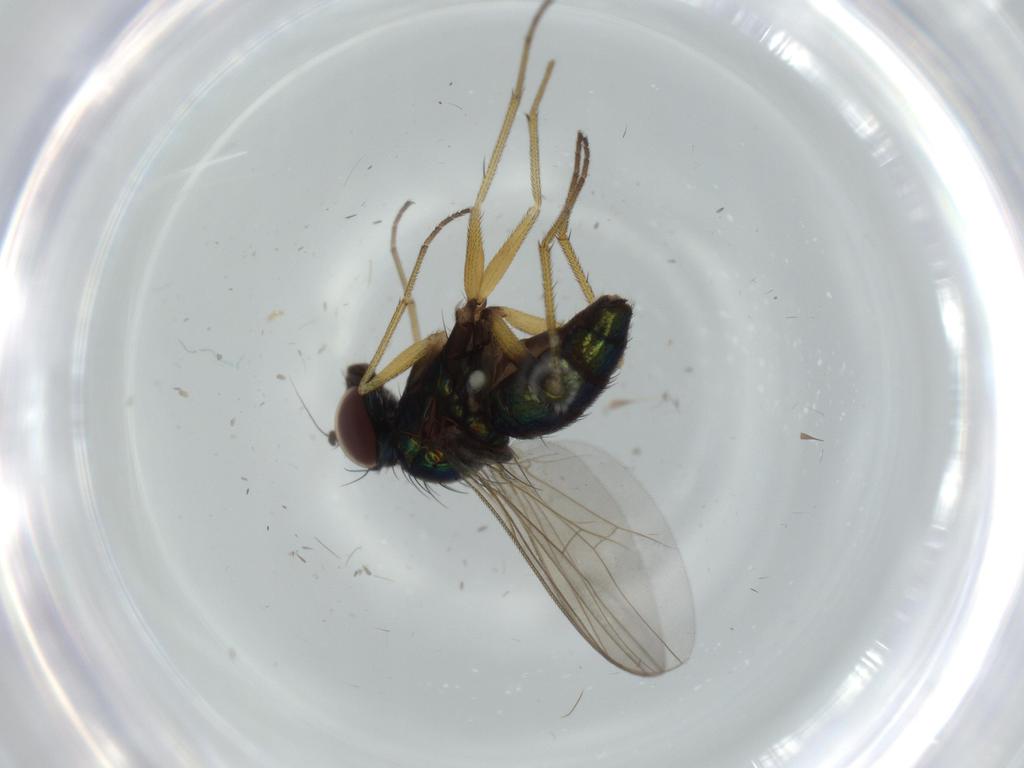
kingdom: Animalia
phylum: Arthropoda
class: Insecta
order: Diptera
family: Dolichopodidae
